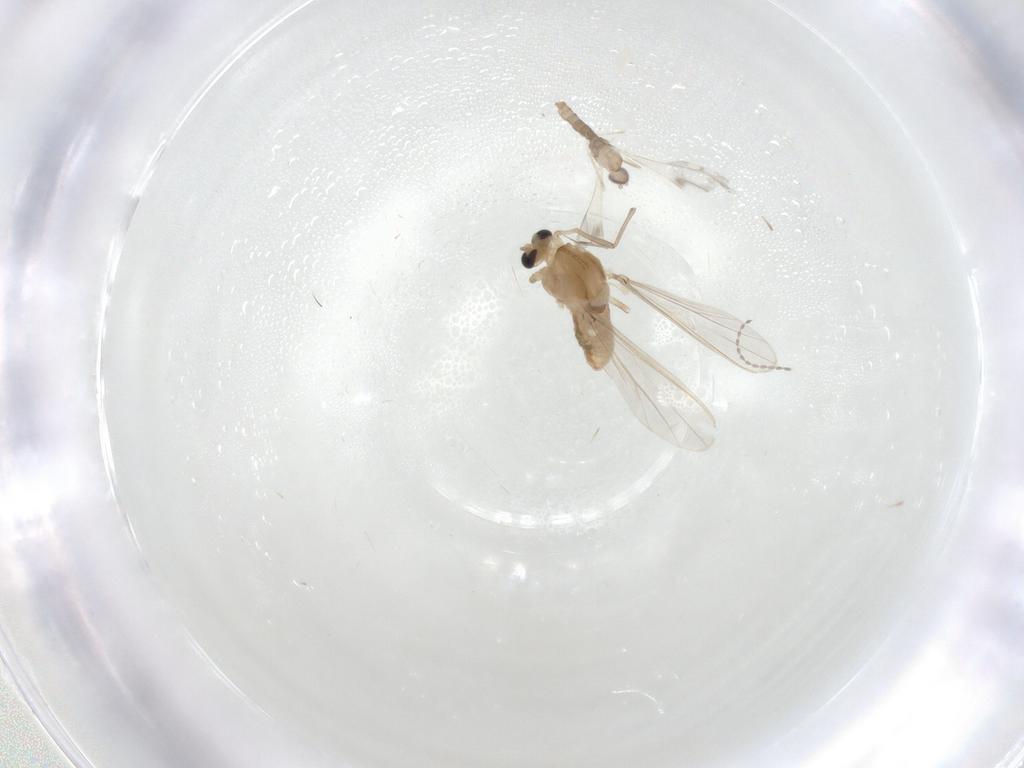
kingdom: Animalia
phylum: Arthropoda
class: Insecta
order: Diptera
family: Chironomidae
